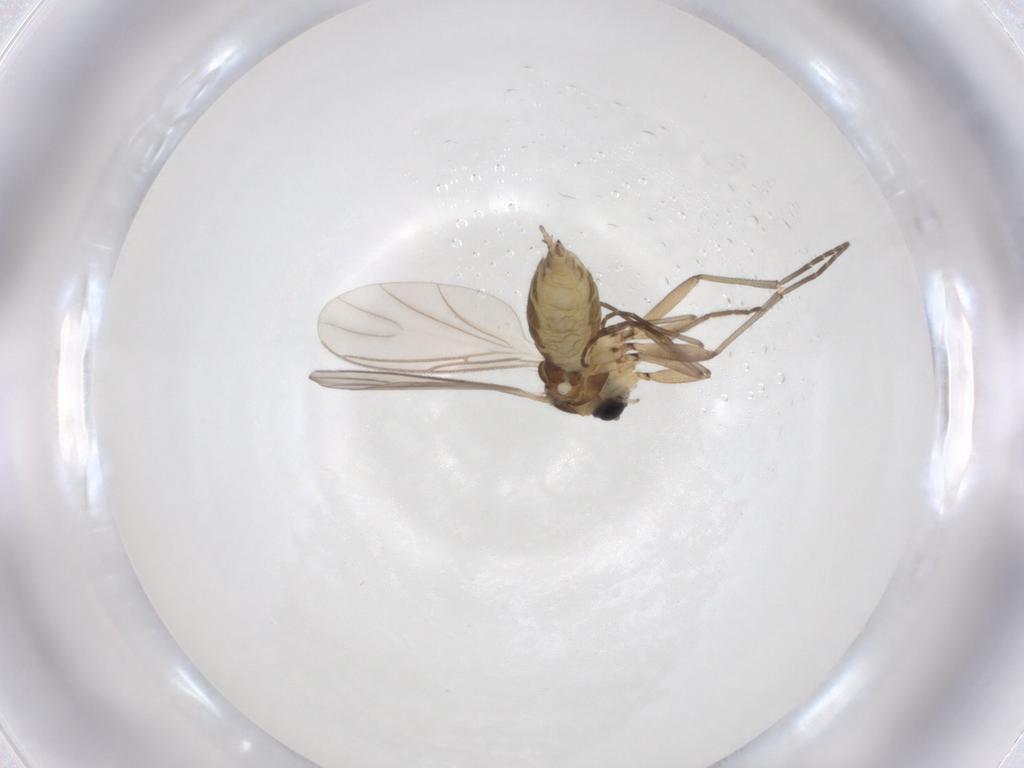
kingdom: Animalia
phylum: Arthropoda
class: Insecta
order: Diptera
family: Chironomidae
